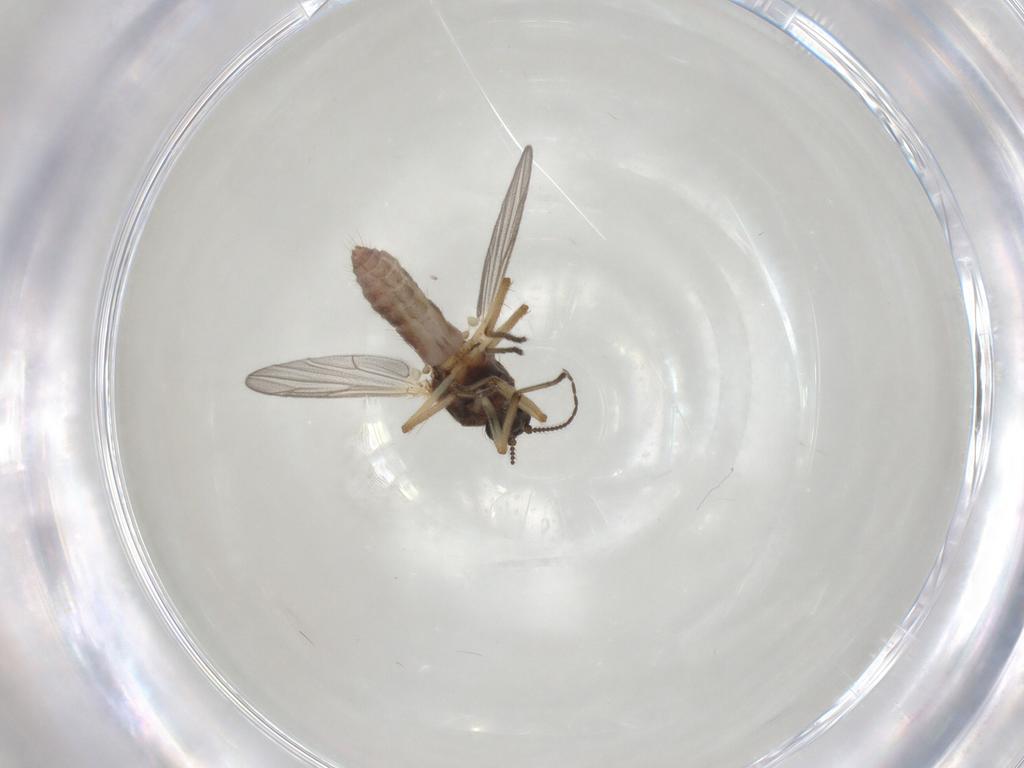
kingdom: Animalia
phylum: Arthropoda
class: Insecta
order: Diptera
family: Ceratopogonidae
